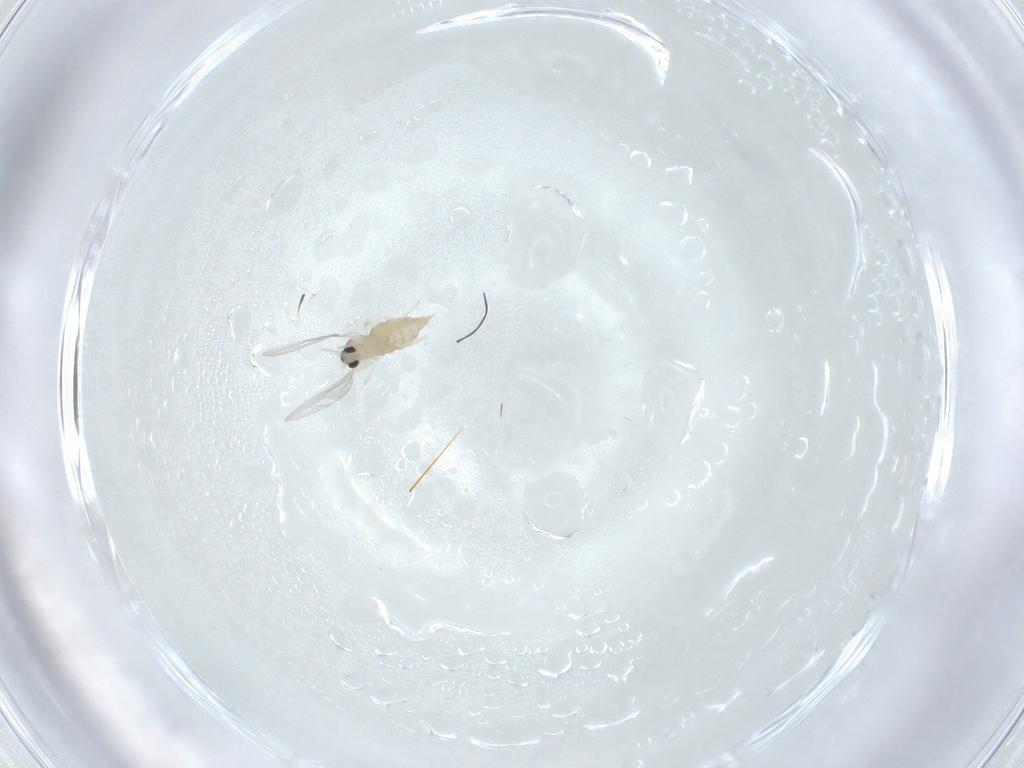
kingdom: Animalia
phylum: Arthropoda
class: Insecta
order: Diptera
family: Cecidomyiidae
